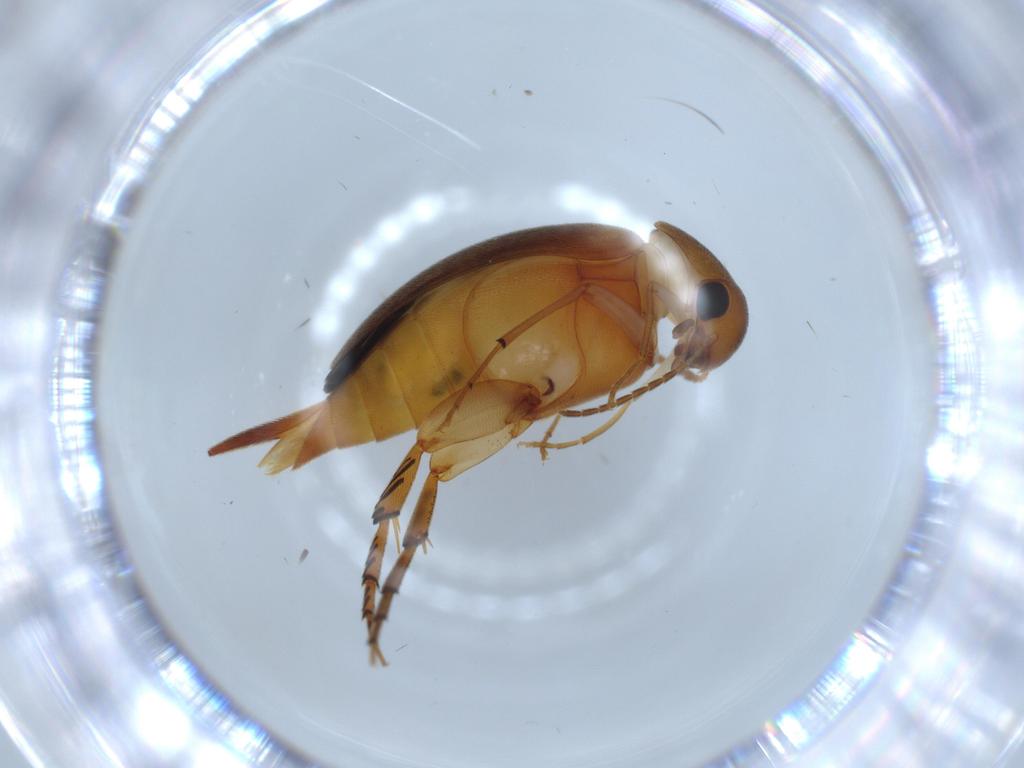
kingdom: Animalia
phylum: Arthropoda
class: Insecta
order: Coleoptera
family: Mordellidae
